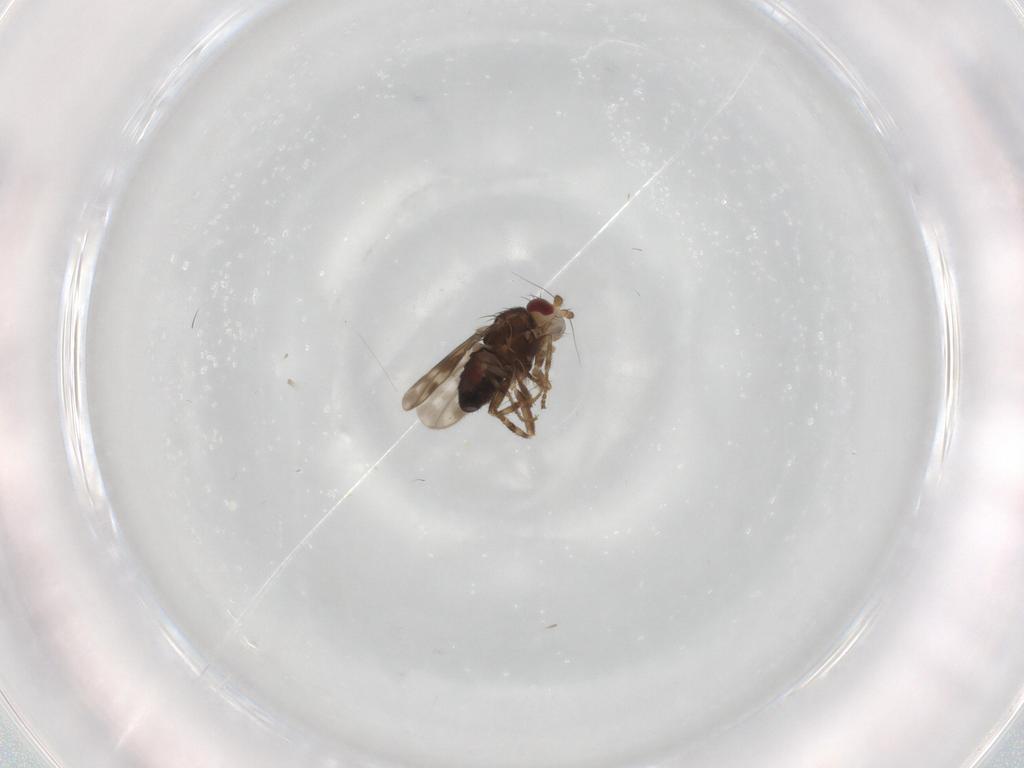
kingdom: Animalia
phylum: Arthropoda
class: Insecta
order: Diptera
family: Sphaeroceridae
